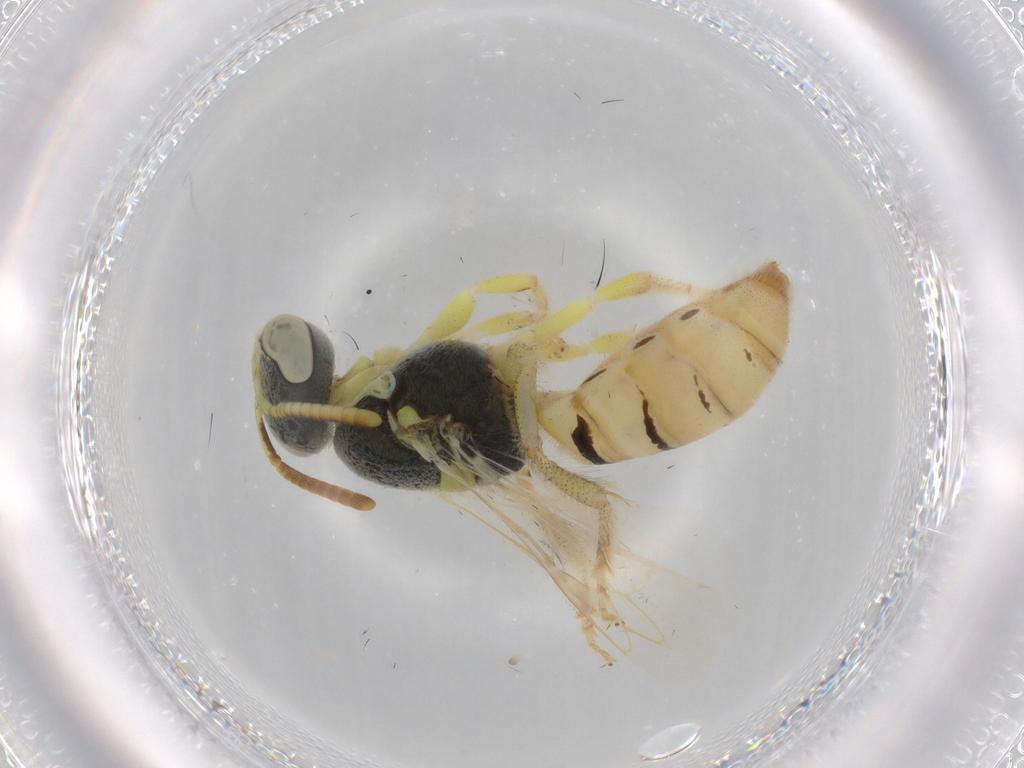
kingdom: Animalia
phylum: Arthropoda
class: Insecta
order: Hymenoptera
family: Halictidae
